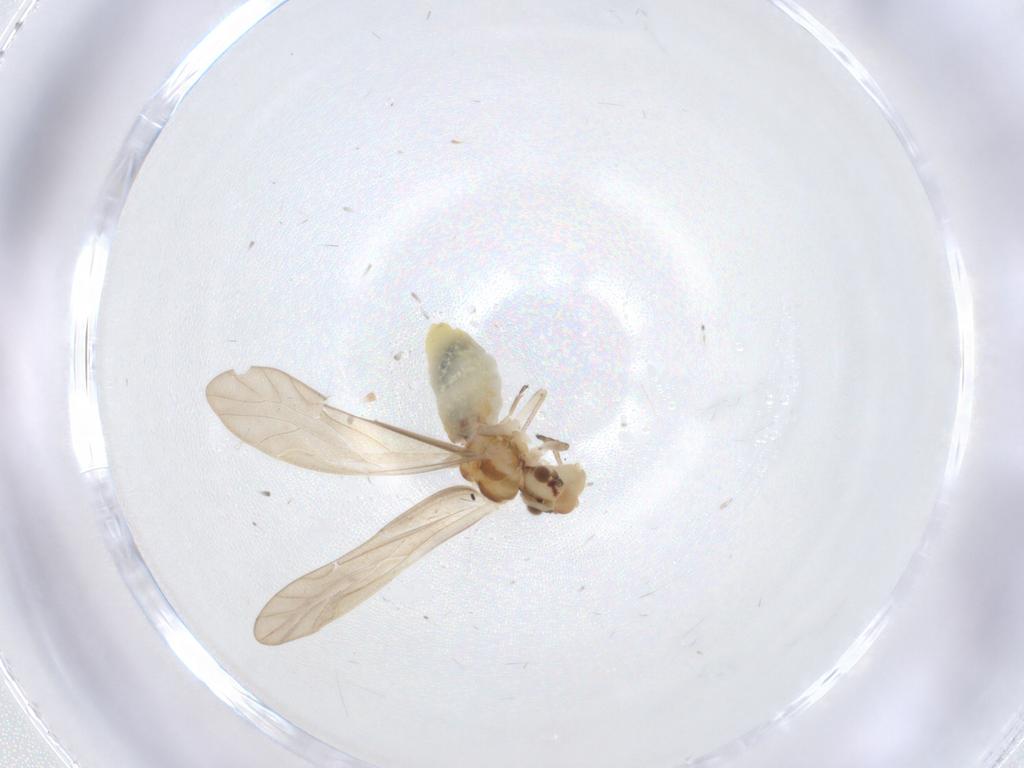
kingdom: Animalia
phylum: Arthropoda
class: Insecta
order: Psocodea
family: Caeciliusidae
